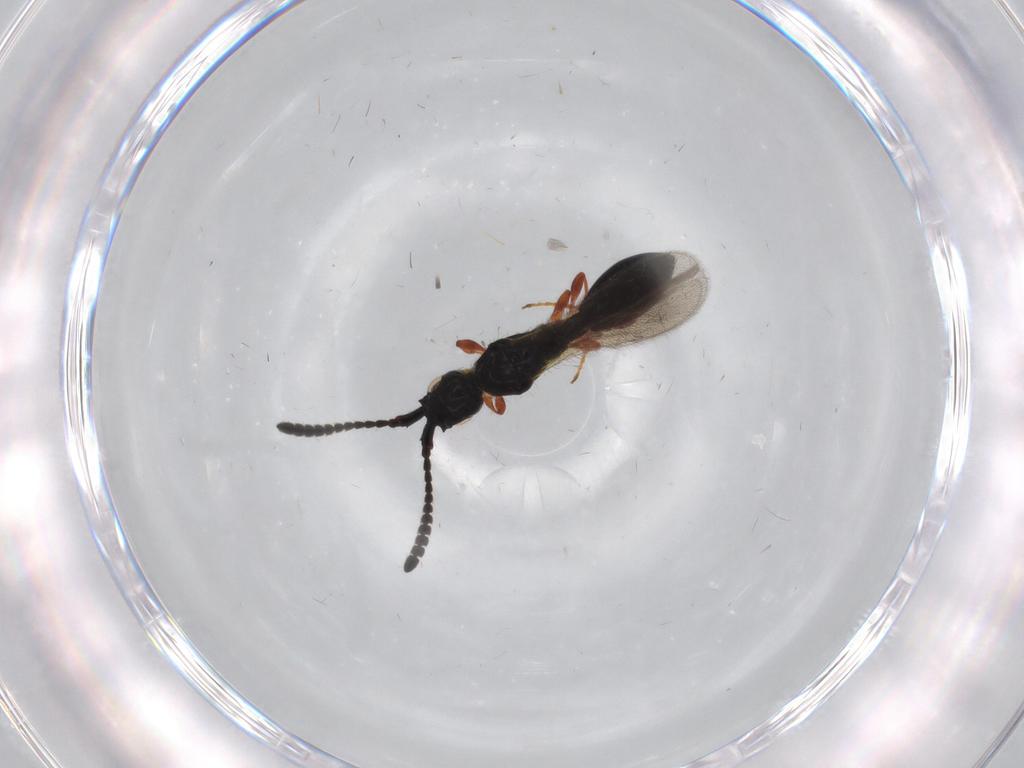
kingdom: Animalia
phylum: Arthropoda
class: Insecta
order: Hymenoptera
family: Diapriidae
